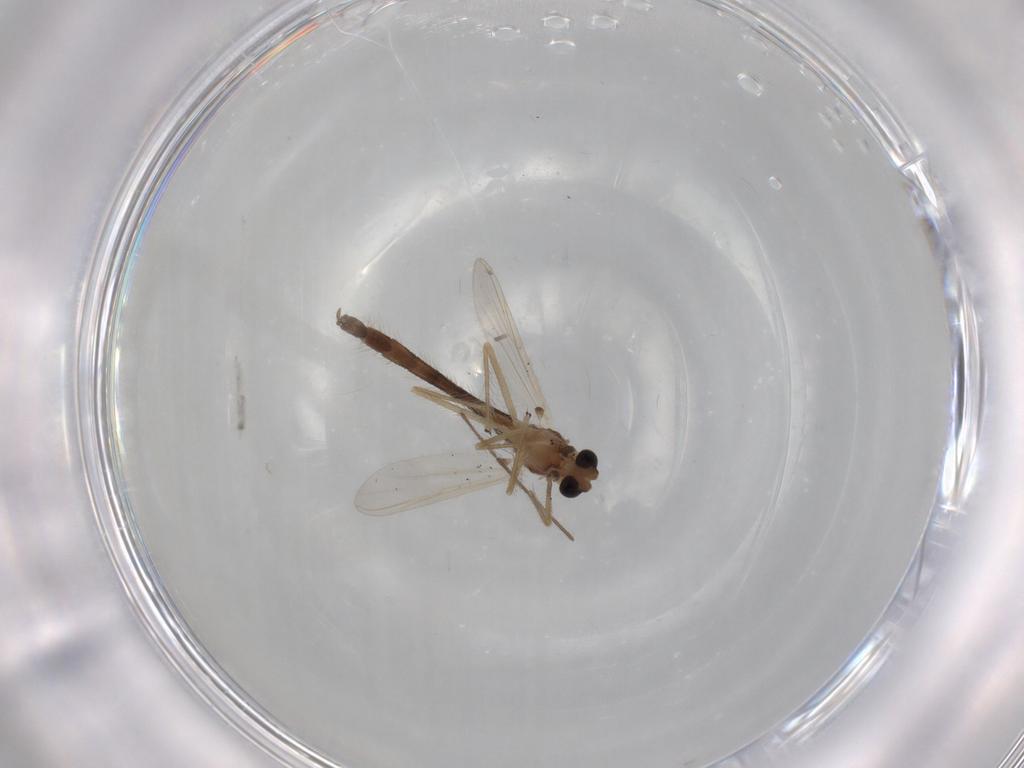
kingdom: Animalia
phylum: Arthropoda
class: Insecta
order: Diptera
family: Chironomidae
